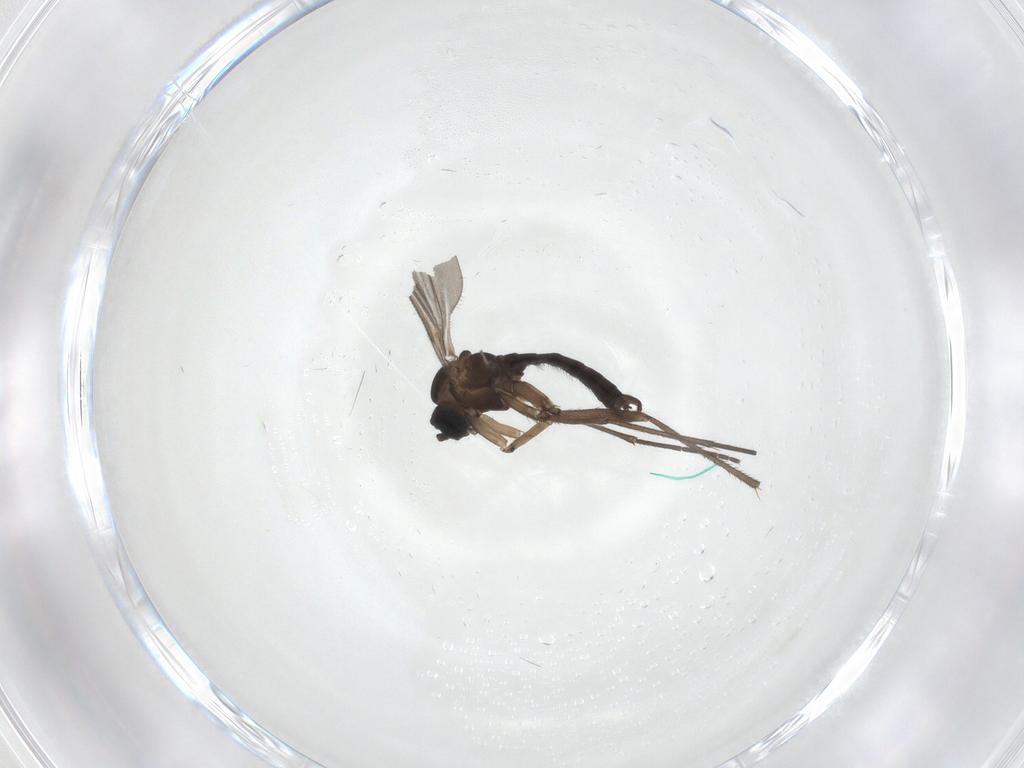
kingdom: Animalia
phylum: Arthropoda
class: Insecta
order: Diptera
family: Sciaridae
